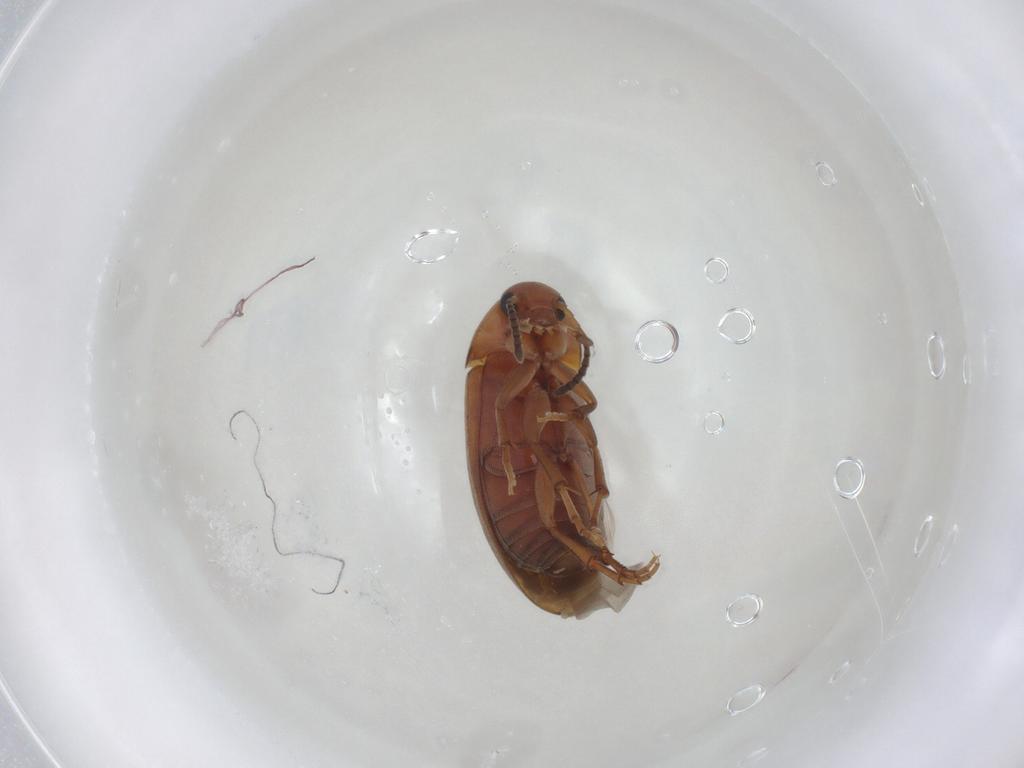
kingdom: Animalia
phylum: Arthropoda
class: Insecta
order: Coleoptera
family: Scraptiidae
